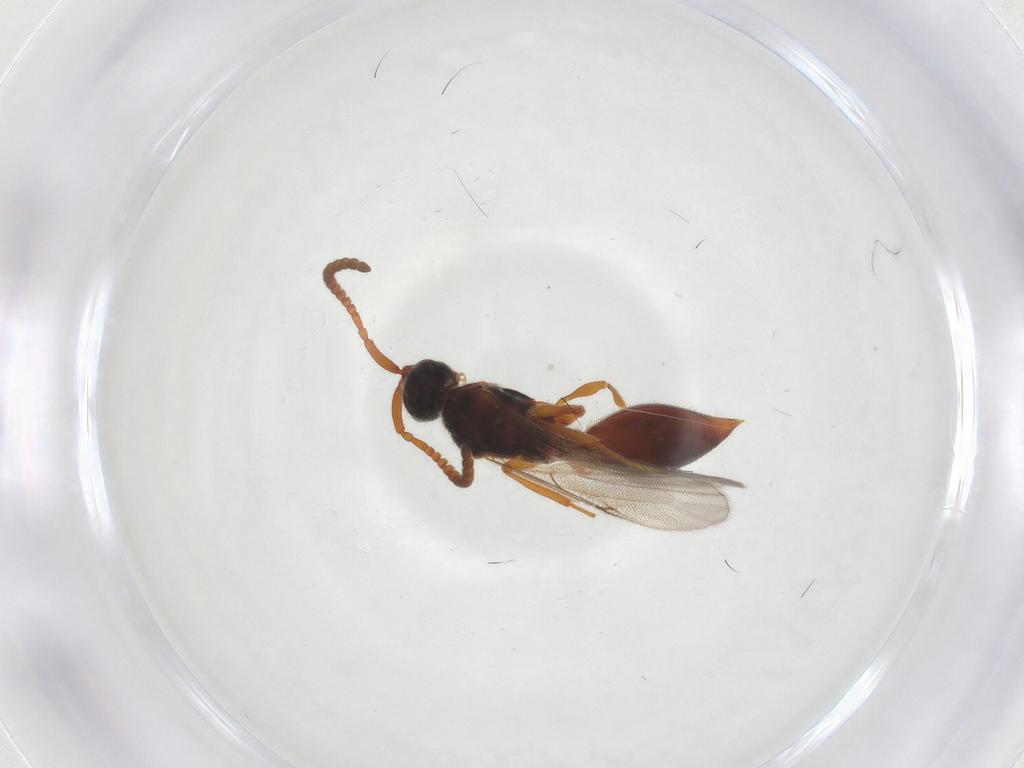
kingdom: Animalia
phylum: Arthropoda
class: Insecta
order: Hymenoptera
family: Diapriidae
